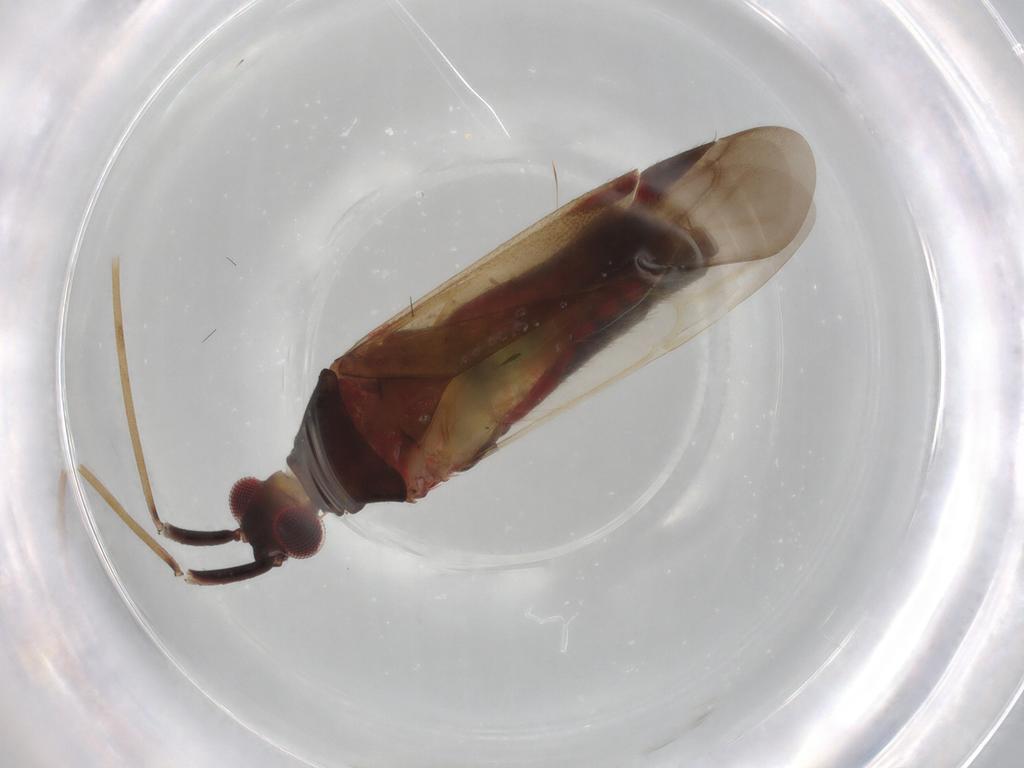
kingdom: Animalia
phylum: Arthropoda
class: Insecta
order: Hemiptera
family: Miridae
